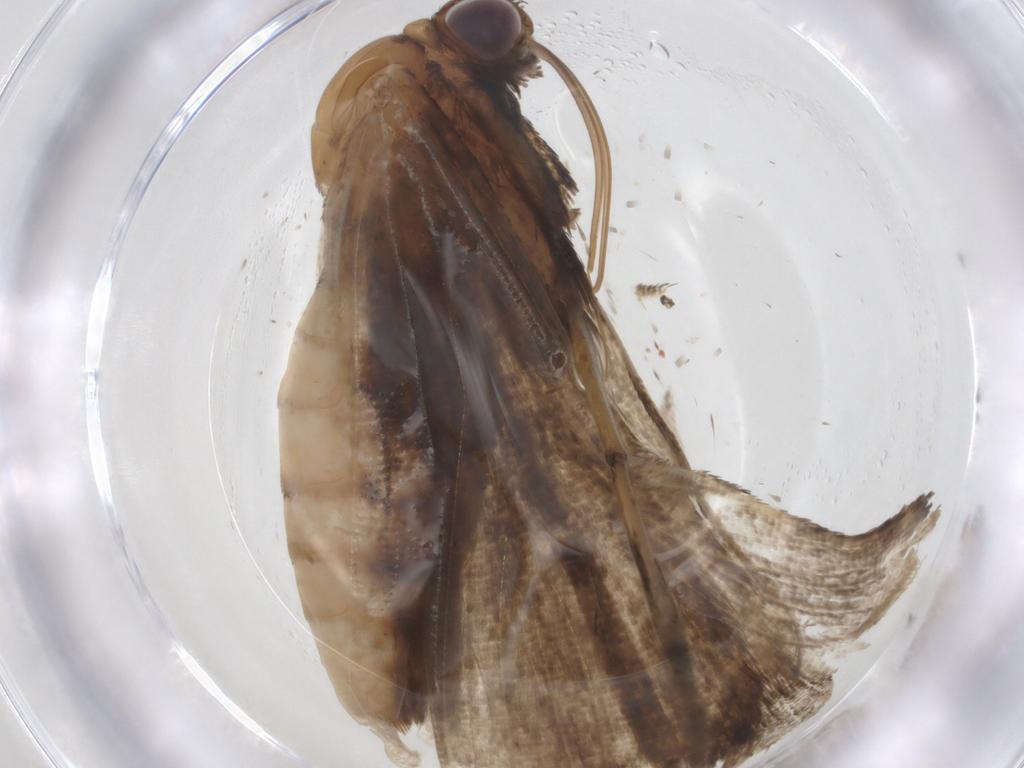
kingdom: Animalia
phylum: Arthropoda
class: Insecta
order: Lepidoptera
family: Erebidae
